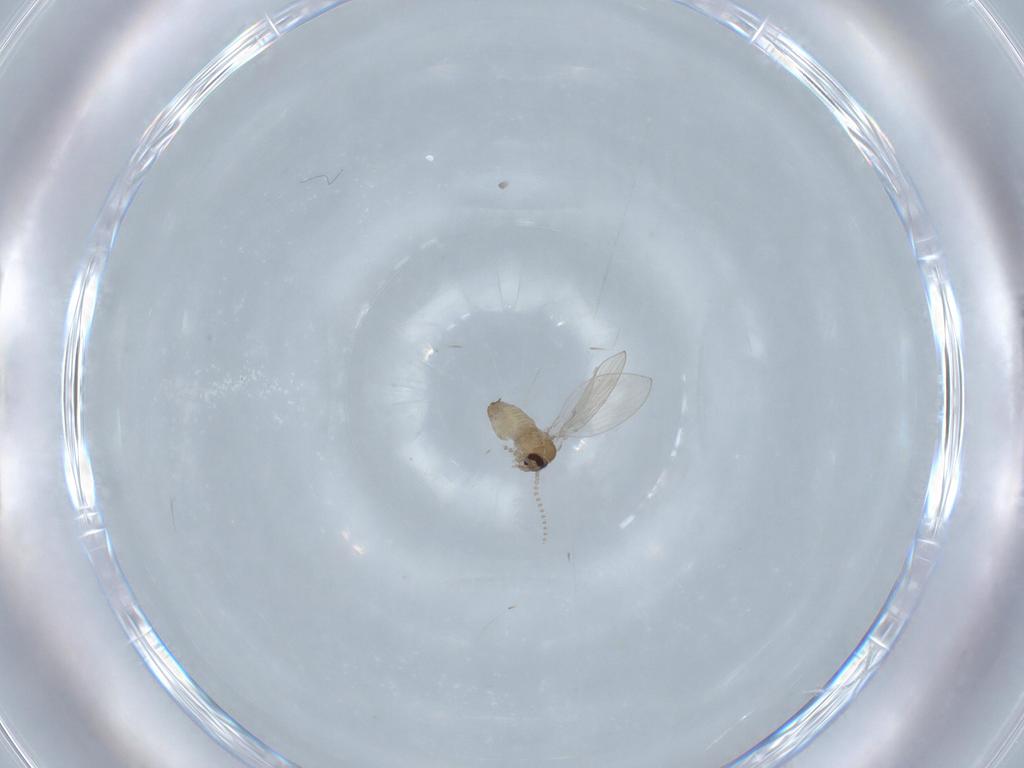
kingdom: Animalia
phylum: Arthropoda
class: Insecta
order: Diptera
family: Psychodidae
